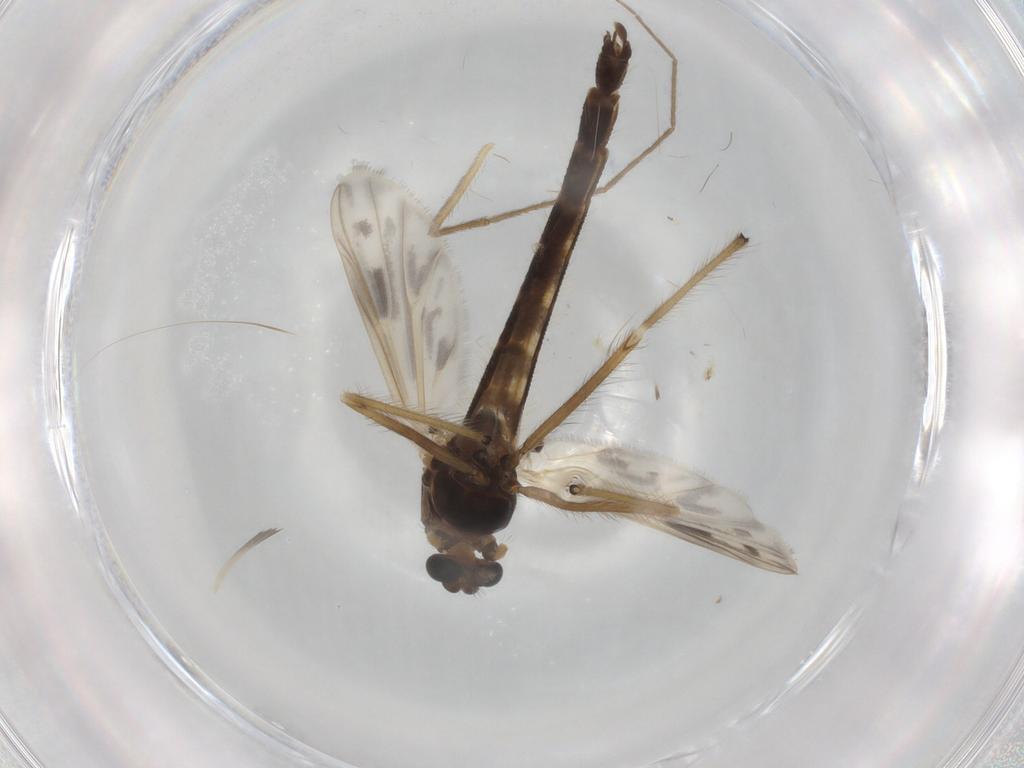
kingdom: Animalia
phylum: Arthropoda
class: Insecta
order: Diptera
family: Chironomidae
